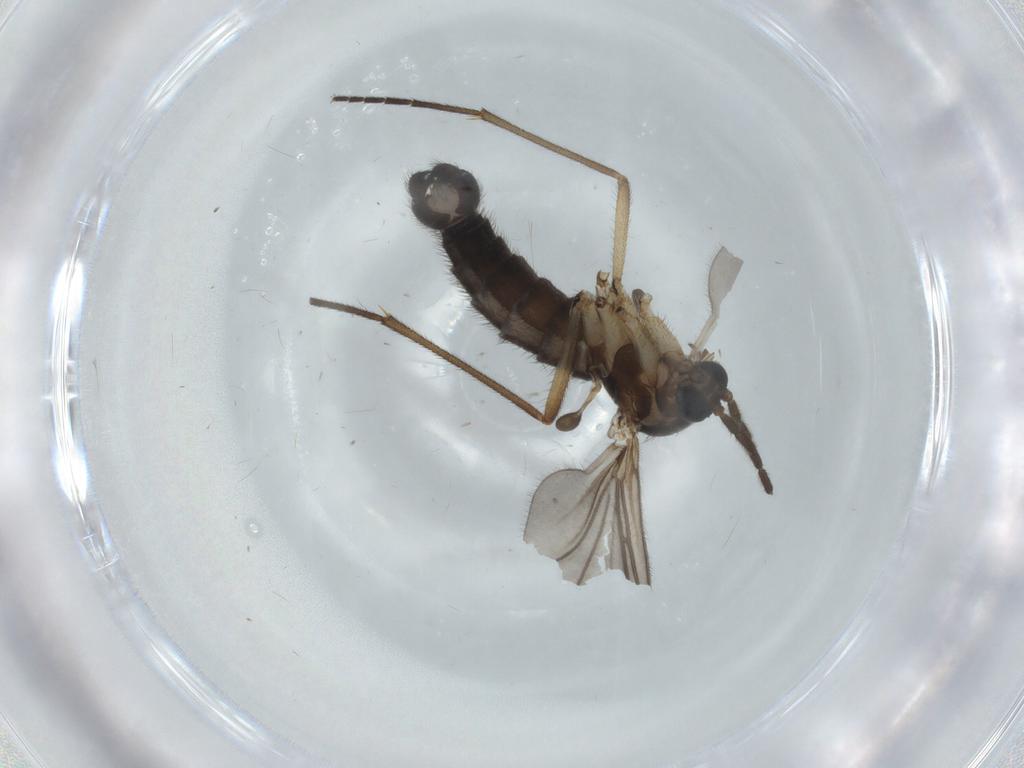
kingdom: Animalia
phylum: Arthropoda
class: Insecta
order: Diptera
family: Sciaridae
